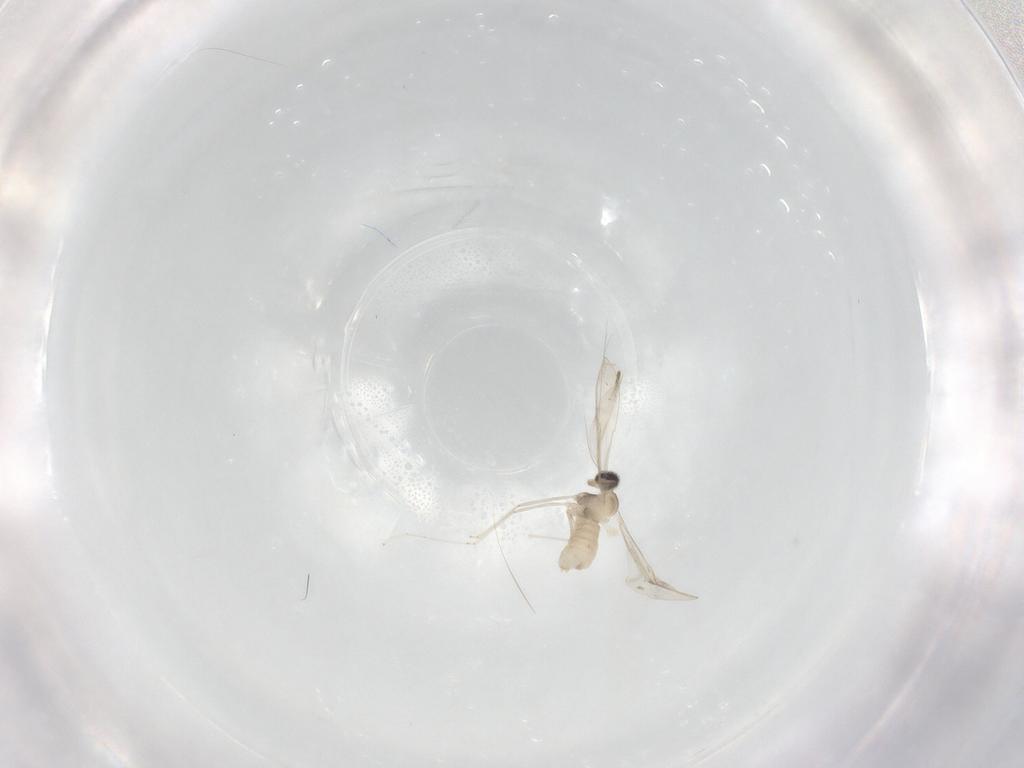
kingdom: Animalia
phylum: Arthropoda
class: Insecta
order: Diptera
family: Cecidomyiidae
